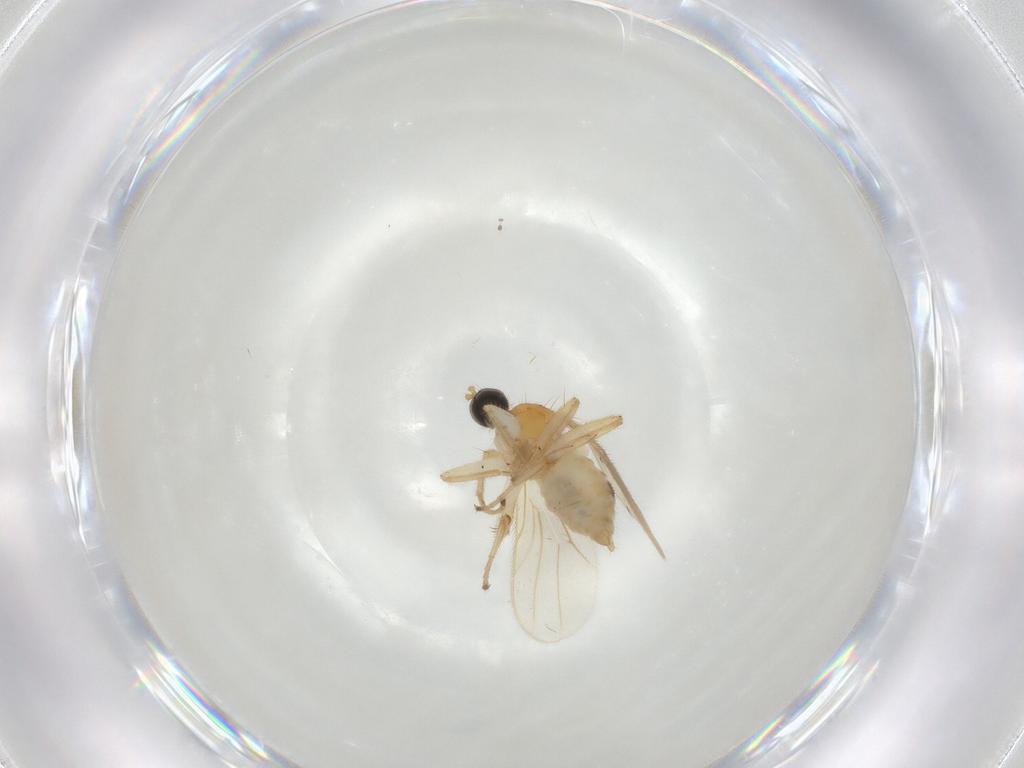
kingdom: Animalia
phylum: Arthropoda
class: Insecta
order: Diptera
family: Hybotidae
